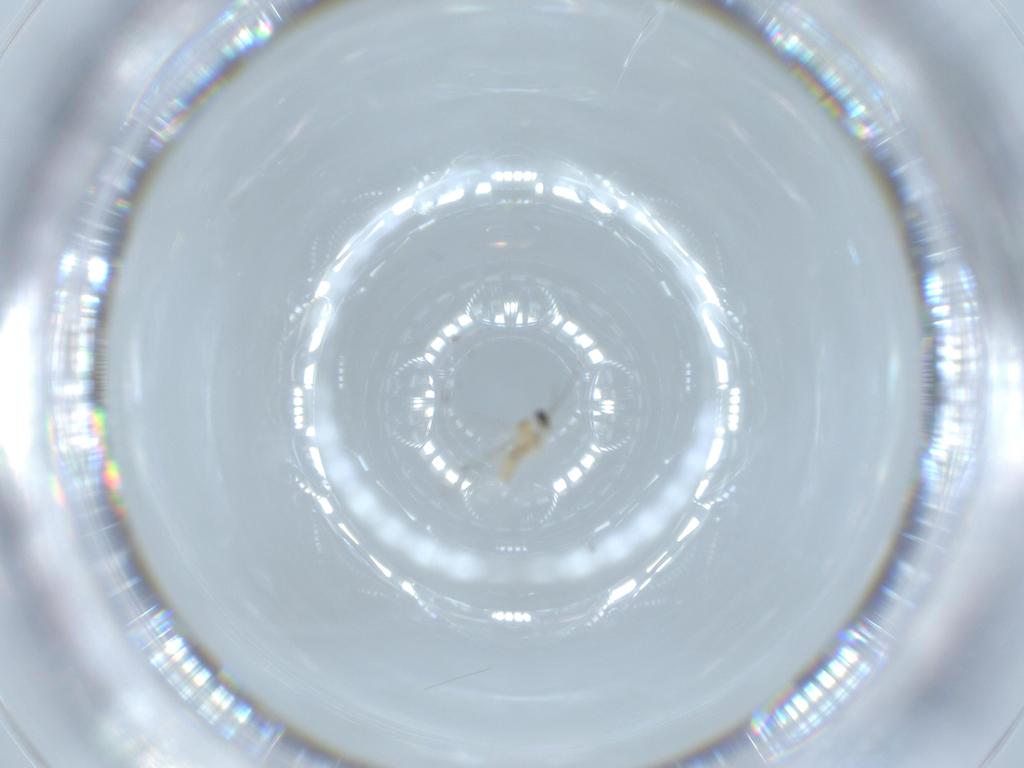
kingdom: Animalia
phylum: Arthropoda
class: Insecta
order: Diptera
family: Cecidomyiidae
